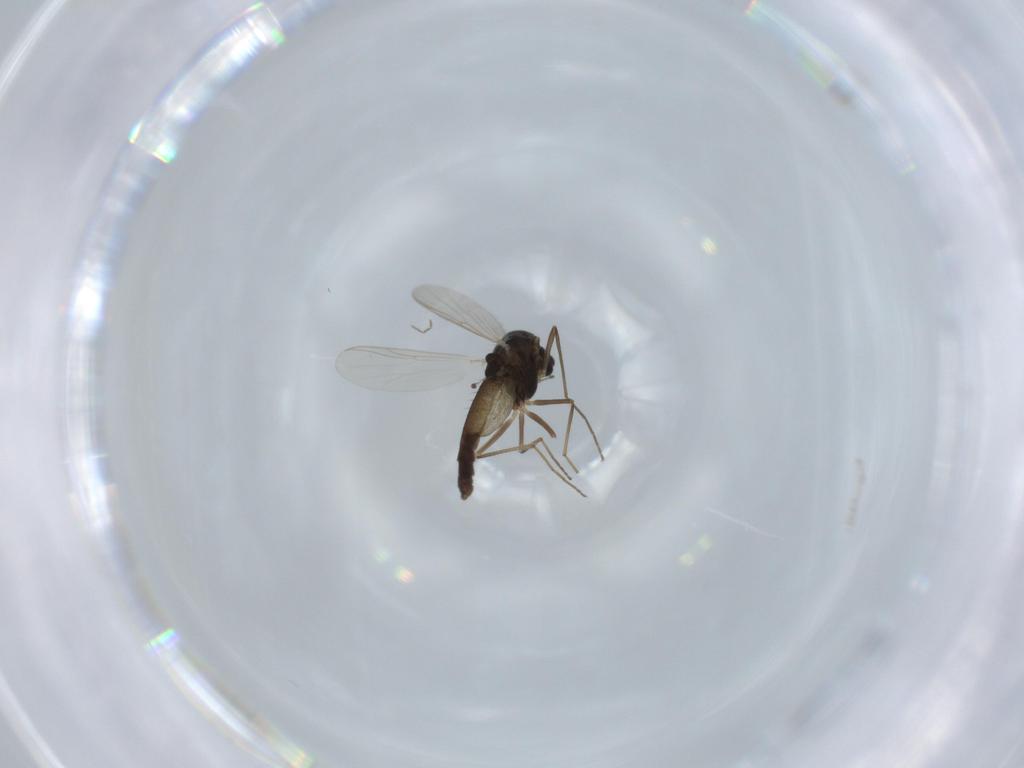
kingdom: Animalia
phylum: Arthropoda
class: Insecta
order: Diptera
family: Chironomidae
